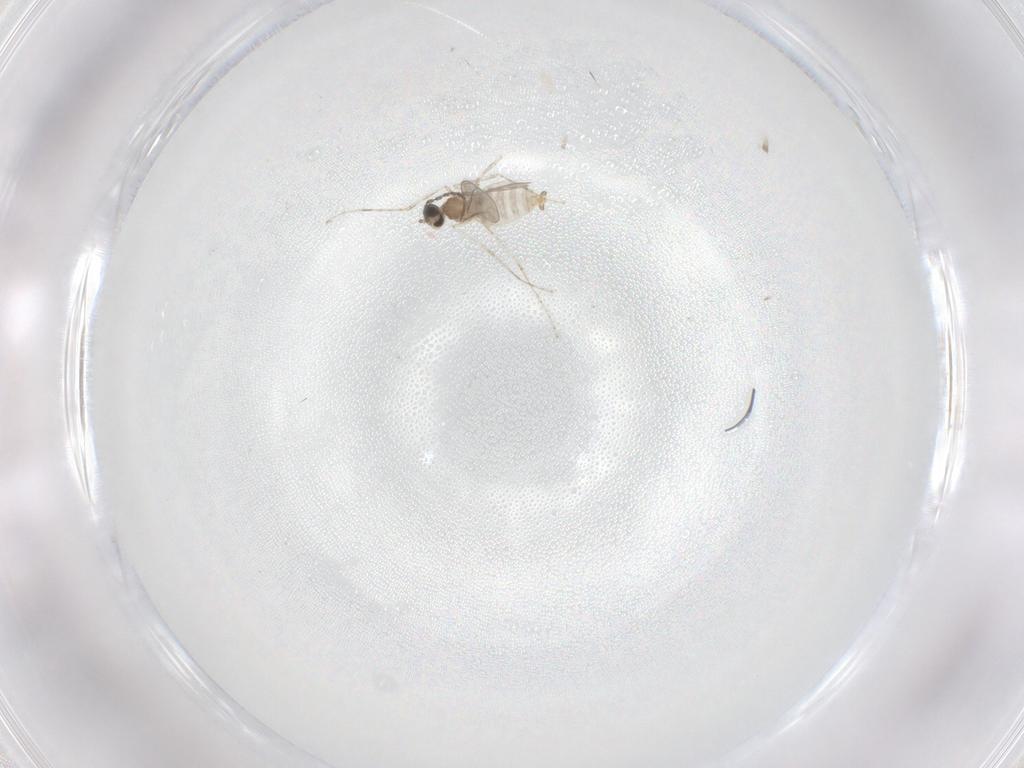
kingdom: Animalia
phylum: Arthropoda
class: Insecta
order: Diptera
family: Cecidomyiidae
